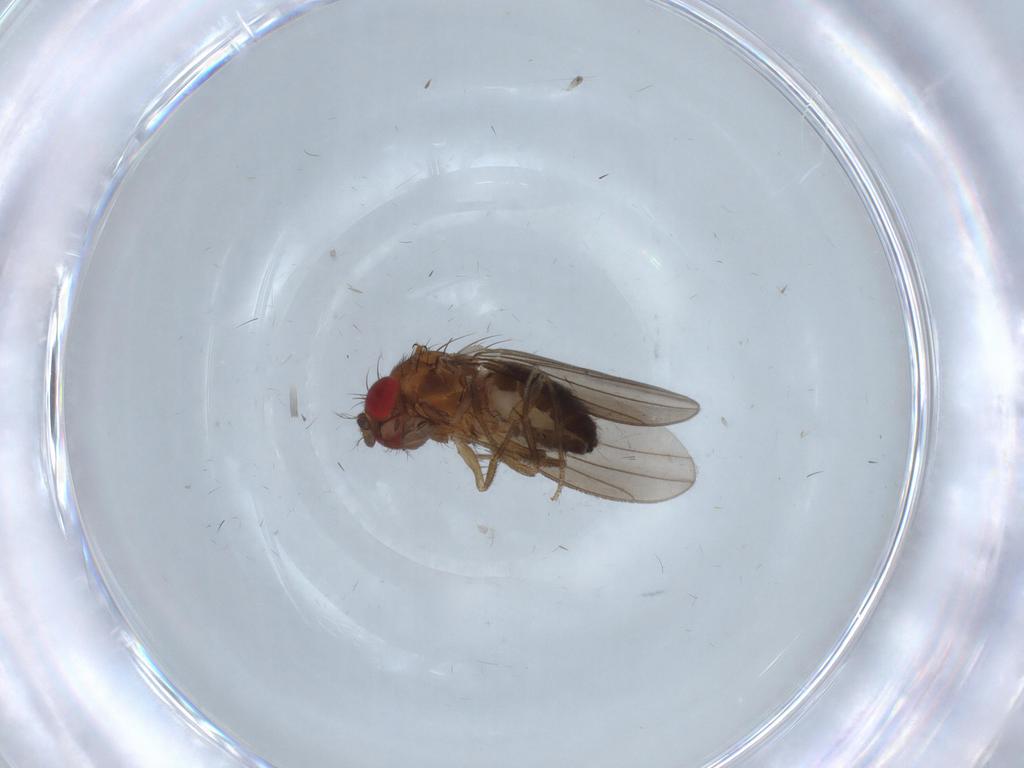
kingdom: Animalia
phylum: Arthropoda
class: Insecta
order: Diptera
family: Drosophilidae
